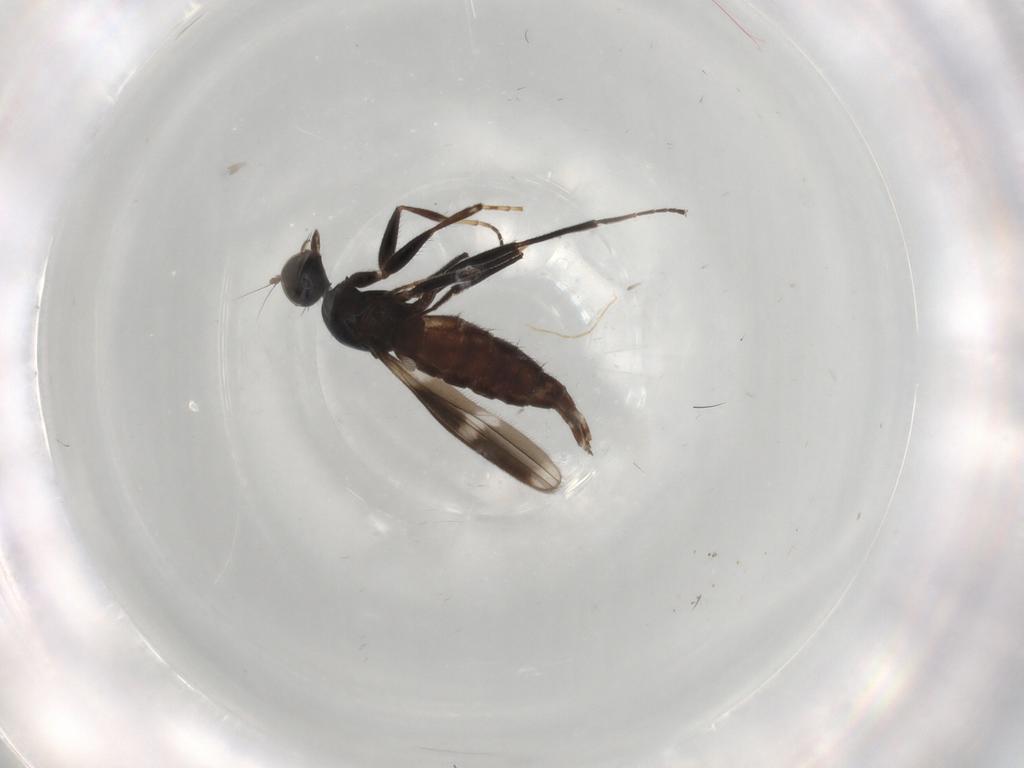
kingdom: Animalia
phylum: Arthropoda
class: Insecta
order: Diptera
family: Hybotidae
